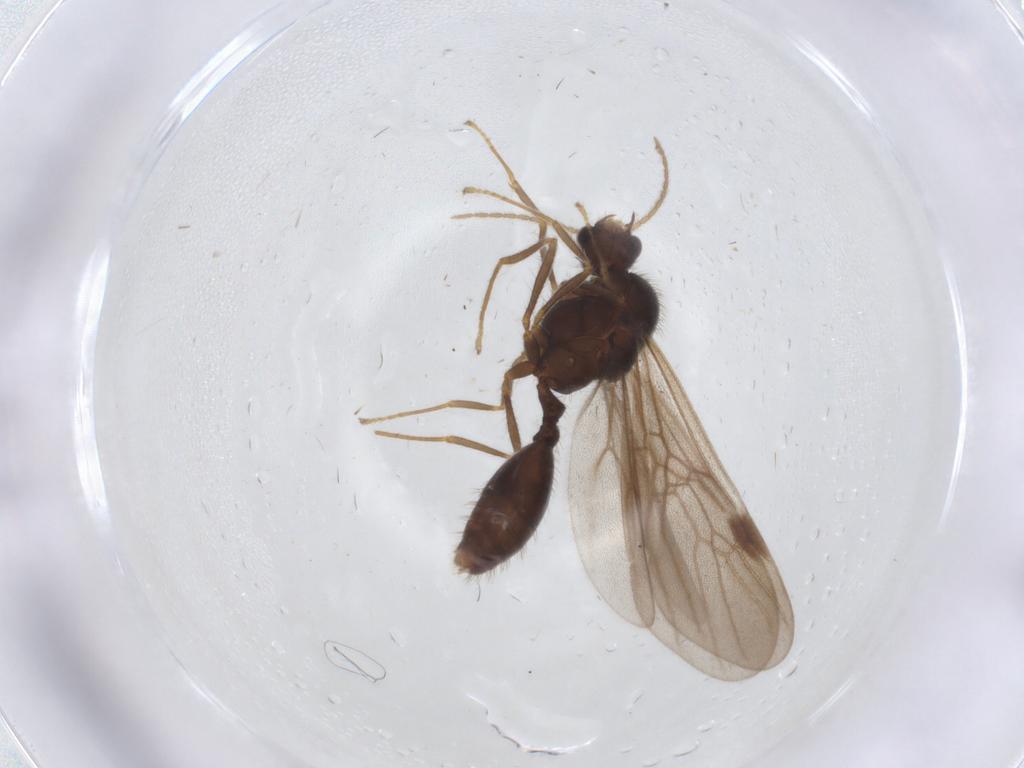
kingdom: Animalia
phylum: Arthropoda
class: Insecta
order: Hymenoptera
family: Formicidae
